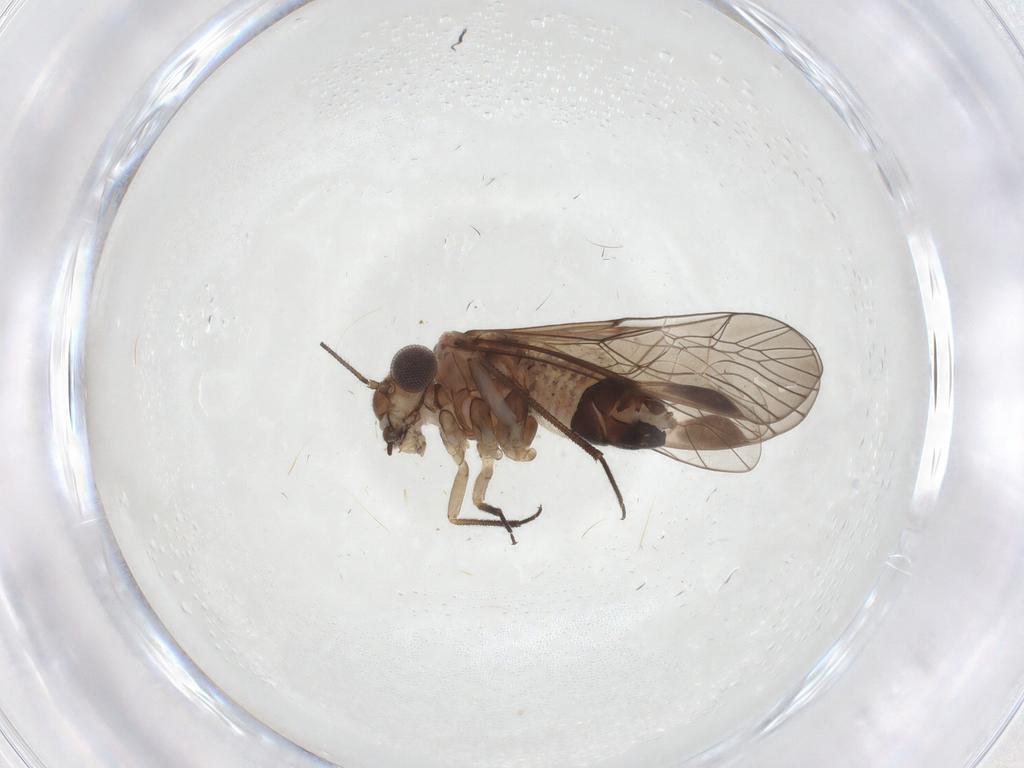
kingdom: Animalia
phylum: Arthropoda
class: Insecta
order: Psocodea
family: Psocidae
